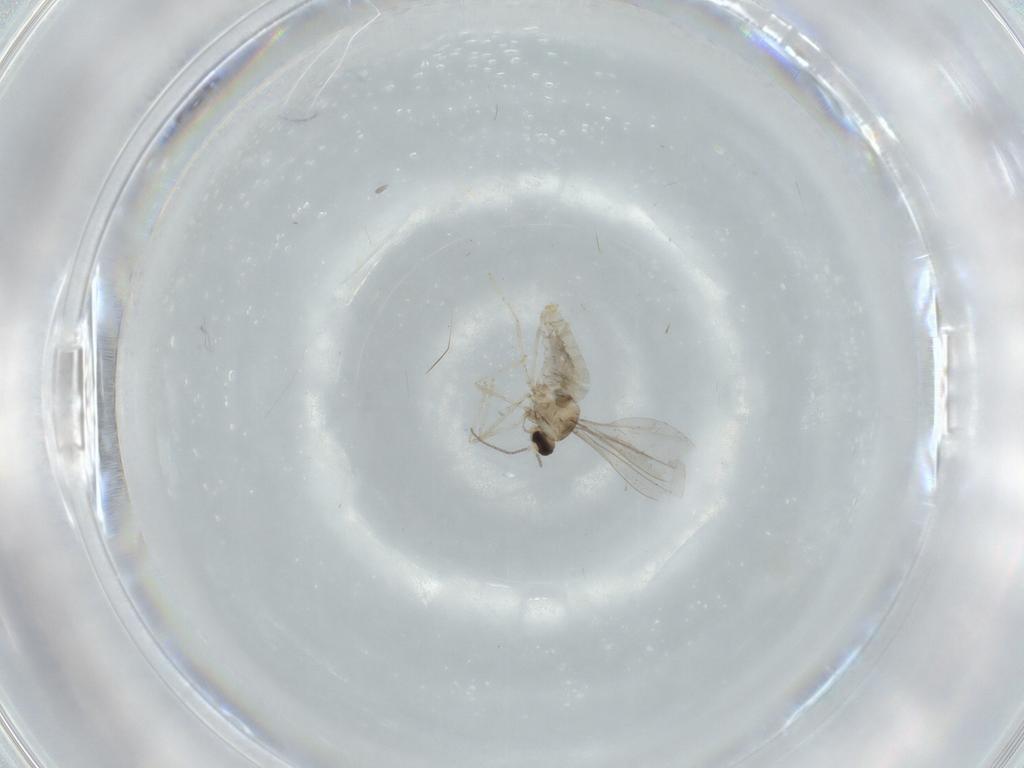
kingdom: Animalia
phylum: Arthropoda
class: Insecta
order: Diptera
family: Cecidomyiidae
